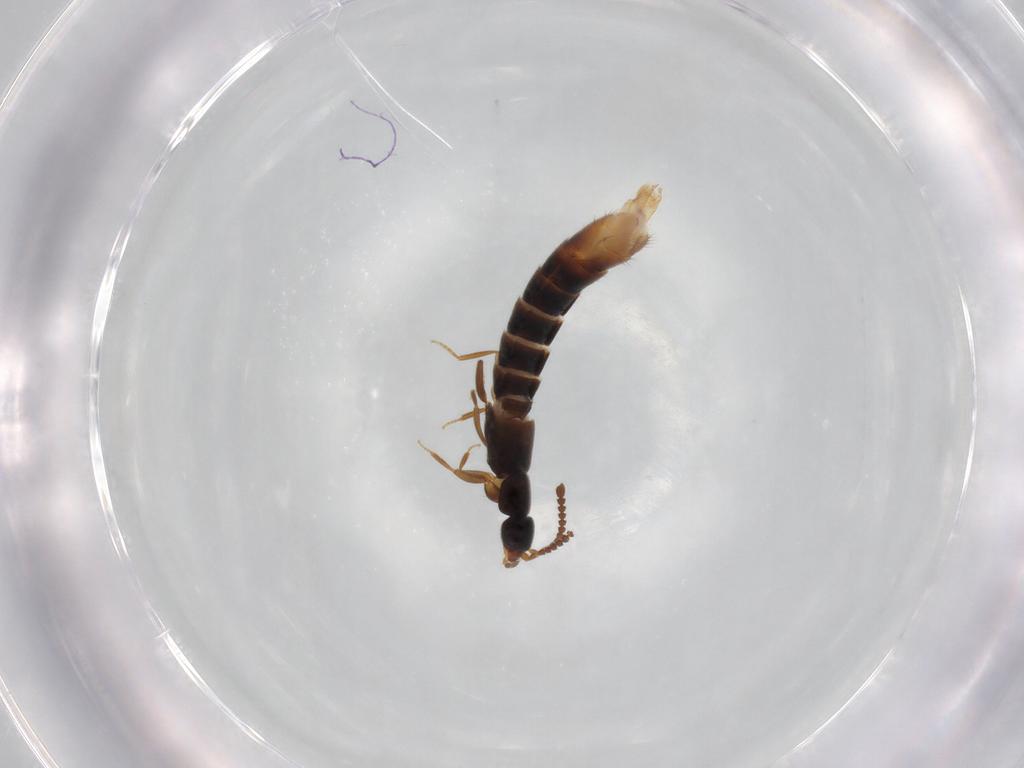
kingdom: Animalia
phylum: Arthropoda
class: Insecta
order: Coleoptera
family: Staphylinidae
